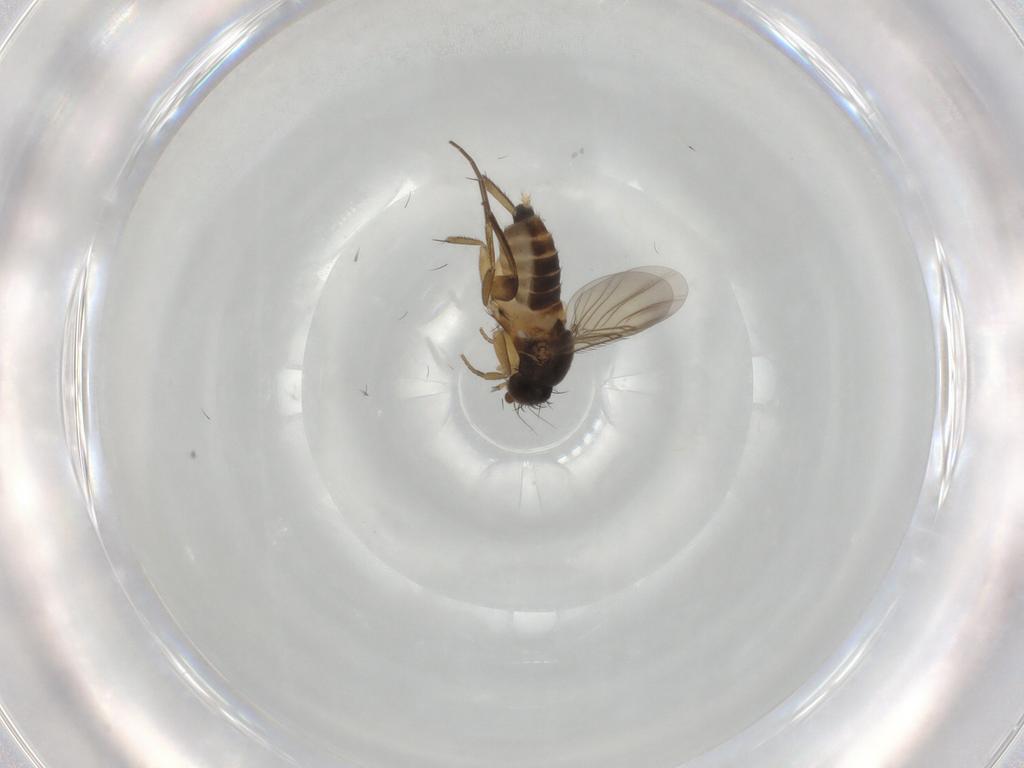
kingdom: Animalia
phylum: Arthropoda
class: Insecta
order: Diptera
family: Phoridae
